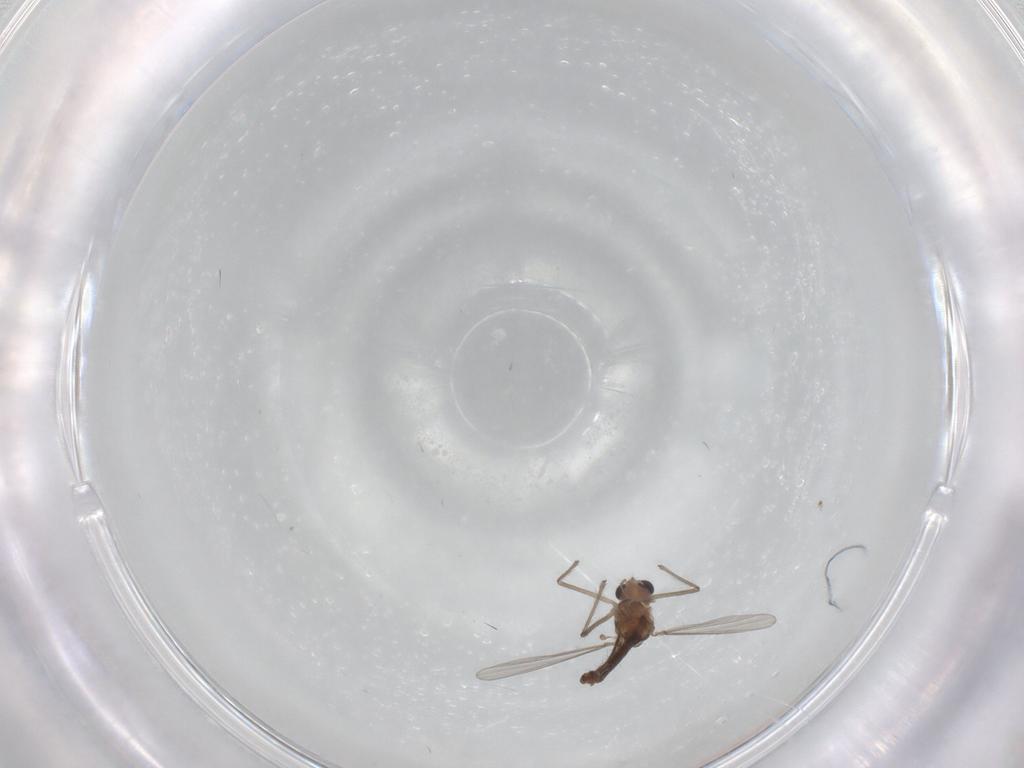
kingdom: Animalia
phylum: Arthropoda
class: Insecta
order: Diptera
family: Chironomidae
